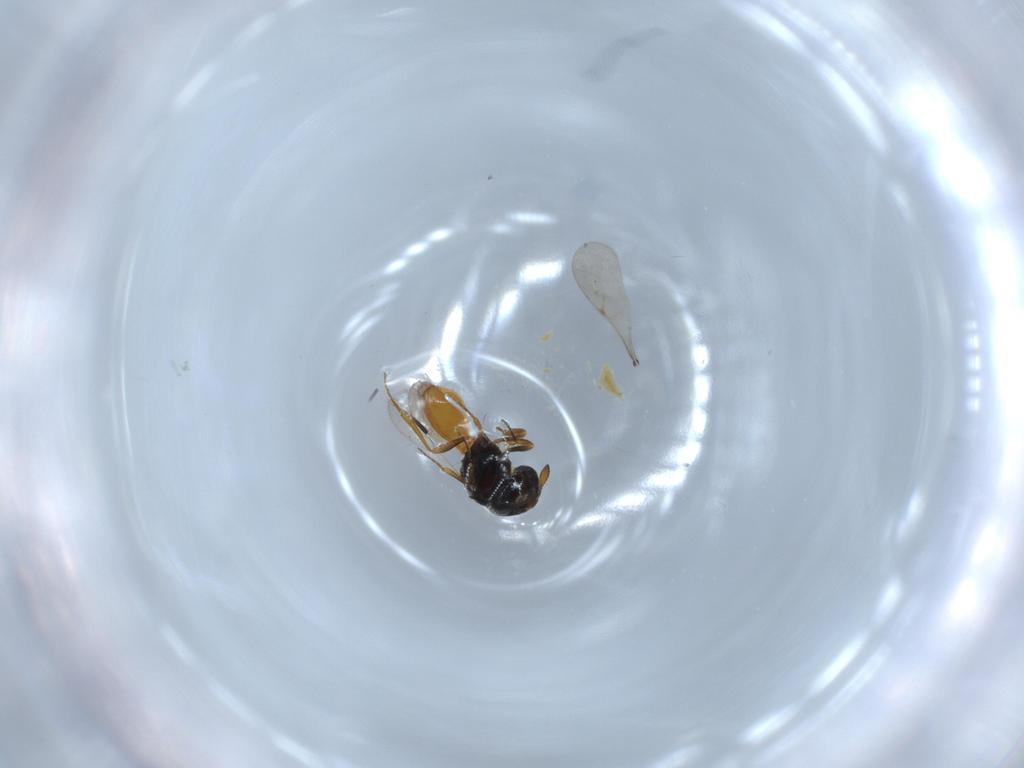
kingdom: Animalia
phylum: Arthropoda
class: Insecta
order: Hymenoptera
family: Scelionidae
